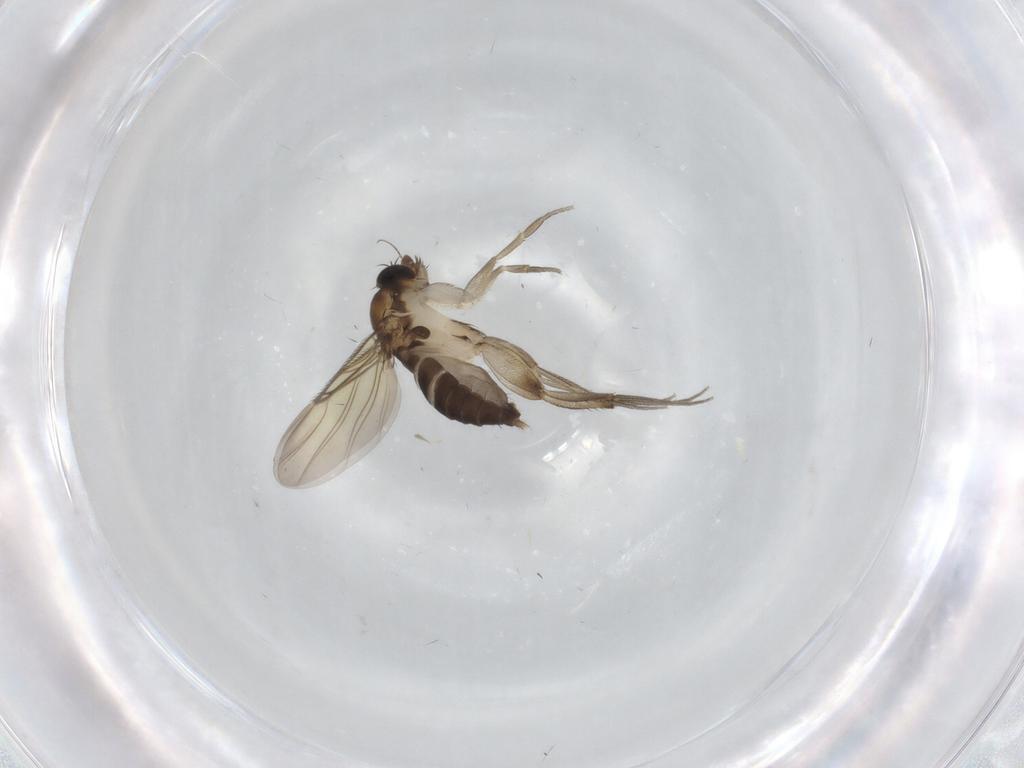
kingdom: Animalia
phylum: Arthropoda
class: Insecta
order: Diptera
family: Phoridae
